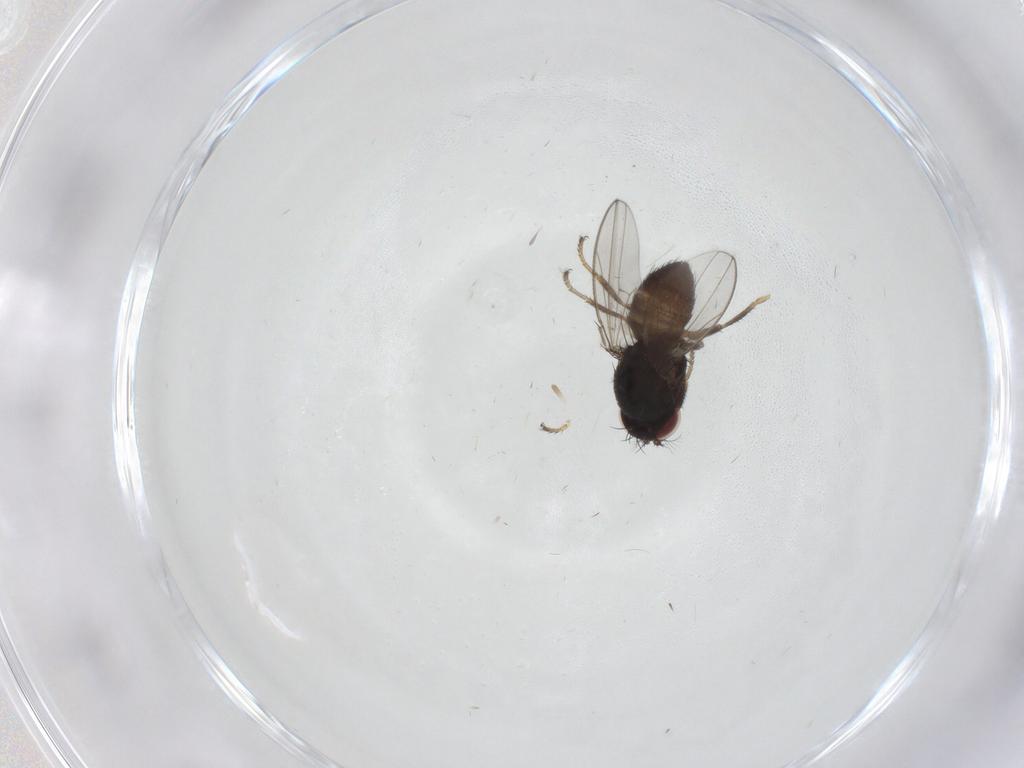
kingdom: Animalia
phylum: Arthropoda
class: Insecta
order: Diptera
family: Ephydridae
